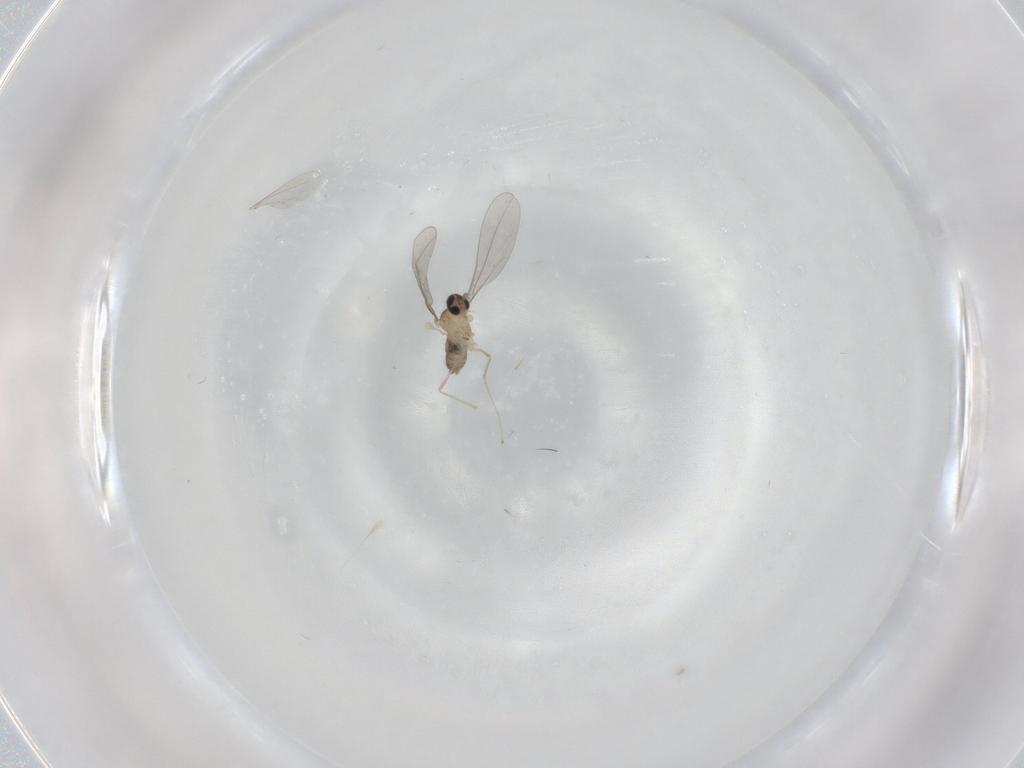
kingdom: Animalia
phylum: Arthropoda
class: Insecta
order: Diptera
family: Cecidomyiidae
